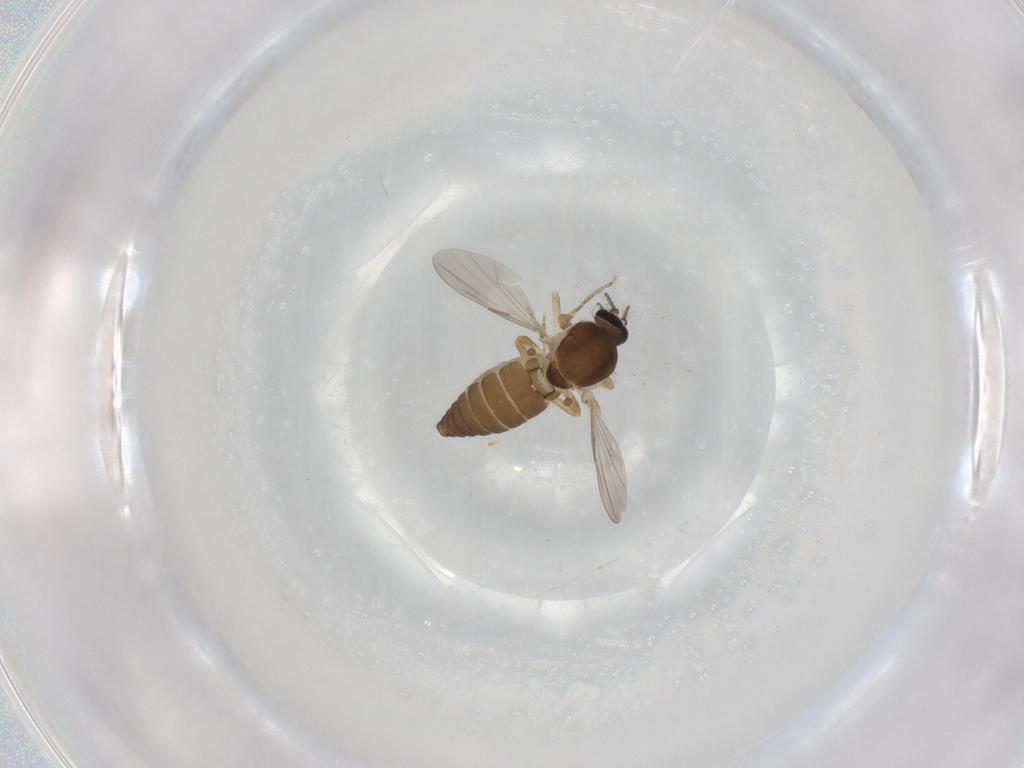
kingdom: Animalia
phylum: Arthropoda
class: Insecta
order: Diptera
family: Ceratopogonidae
